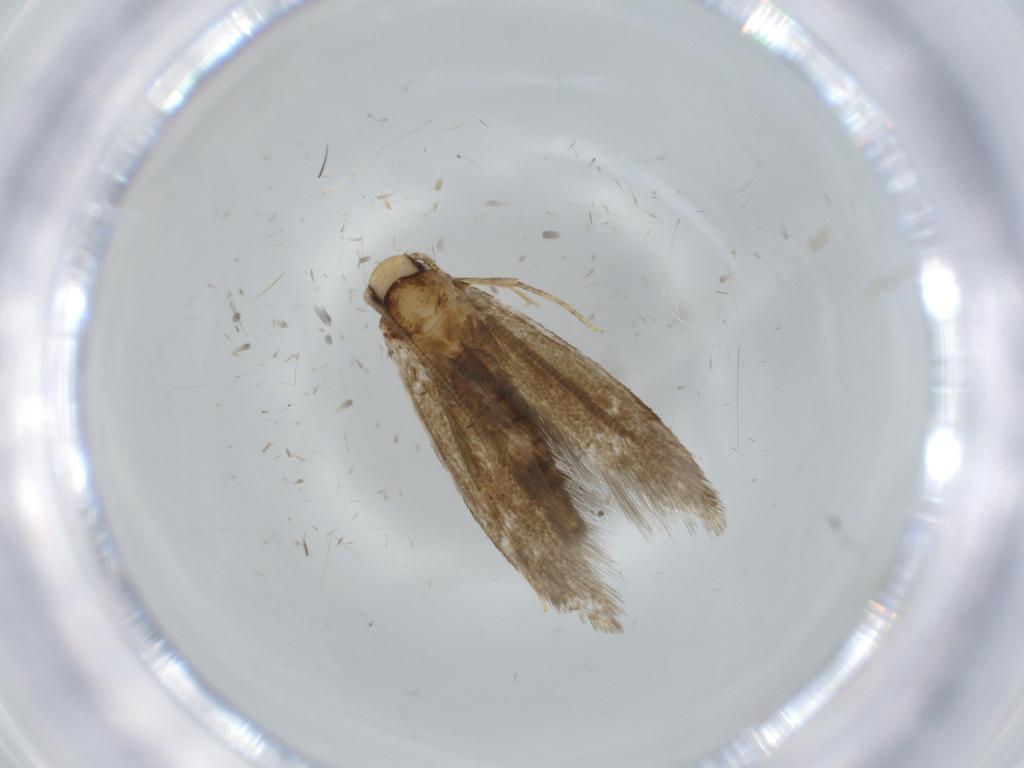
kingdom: Animalia
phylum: Arthropoda
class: Insecta
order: Lepidoptera
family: Tineidae
